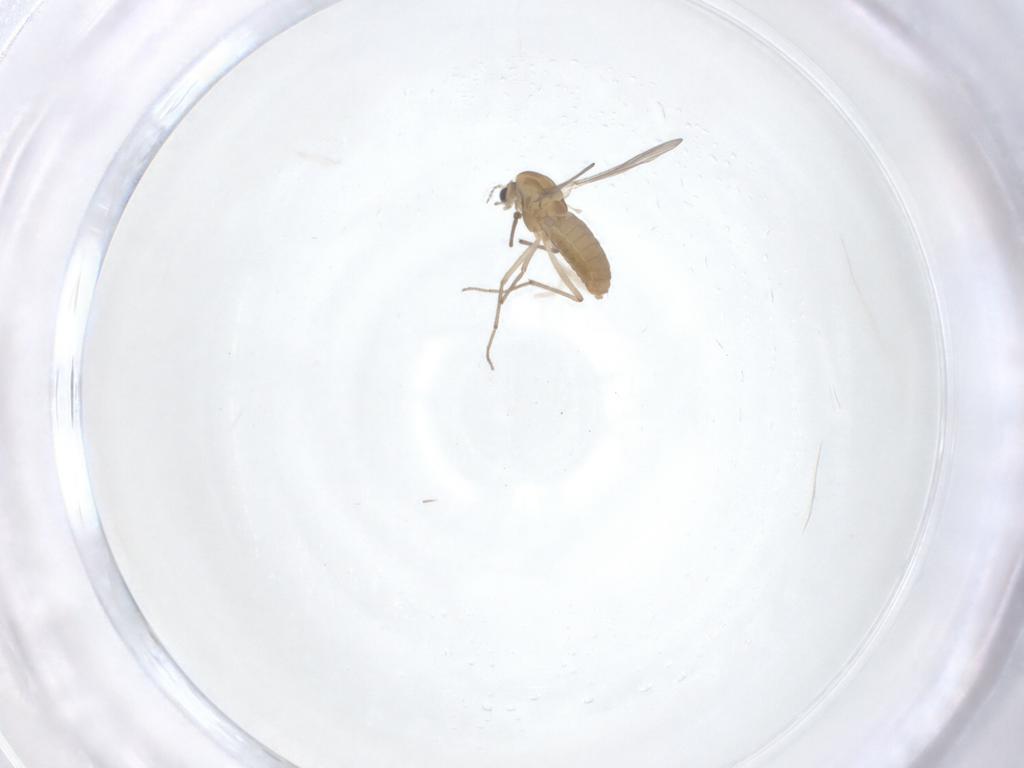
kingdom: Animalia
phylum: Arthropoda
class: Insecta
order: Diptera
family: Chironomidae
